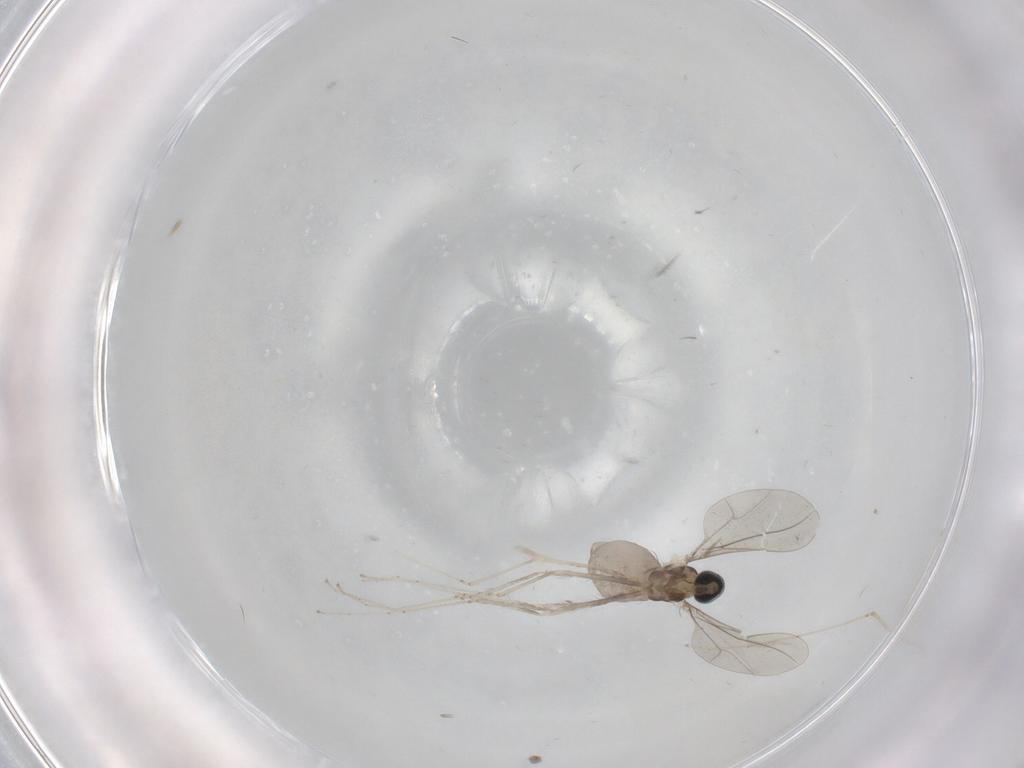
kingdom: Animalia
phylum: Arthropoda
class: Insecta
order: Diptera
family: Cecidomyiidae
